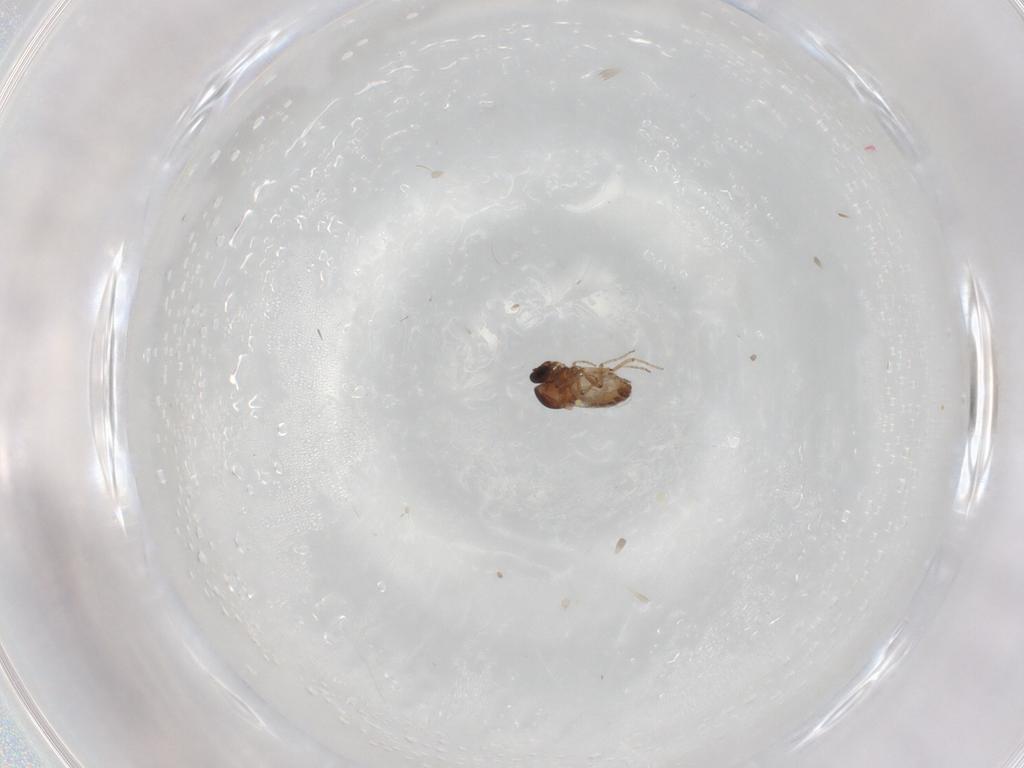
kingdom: Animalia
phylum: Arthropoda
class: Insecta
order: Diptera
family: Ceratopogonidae
